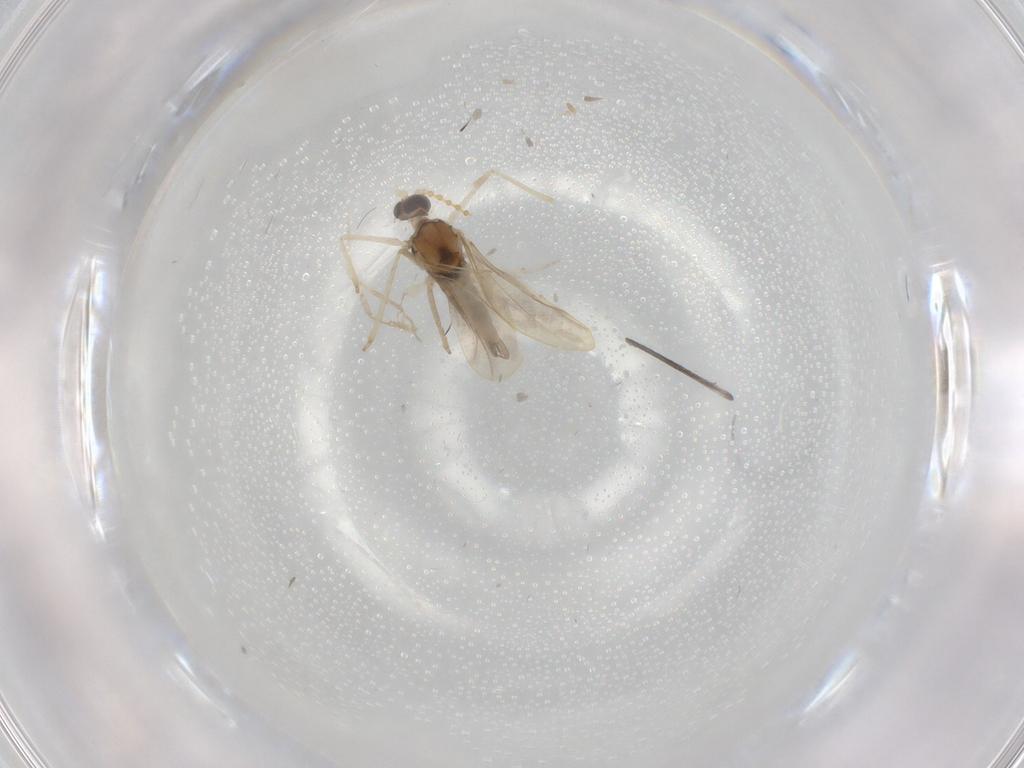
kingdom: Animalia
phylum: Arthropoda
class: Insecta
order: Diptera
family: Cecidomyiidae
